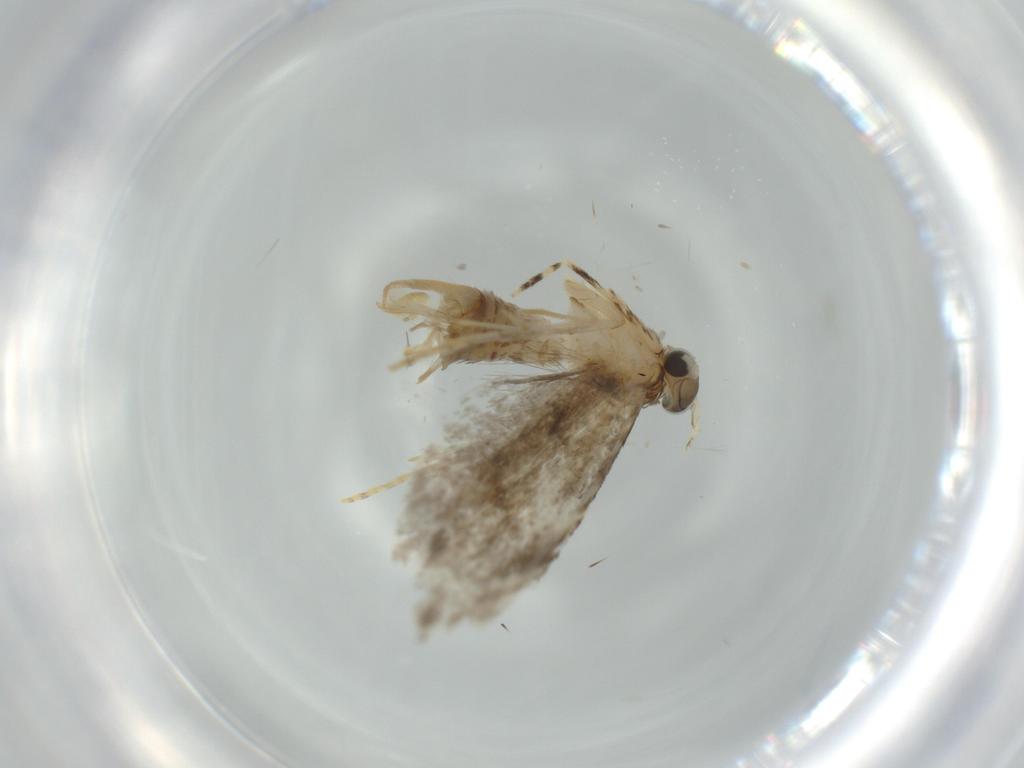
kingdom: Animalia
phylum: Arthropoda
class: Insecta
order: Lepidoptera
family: Tineidae
